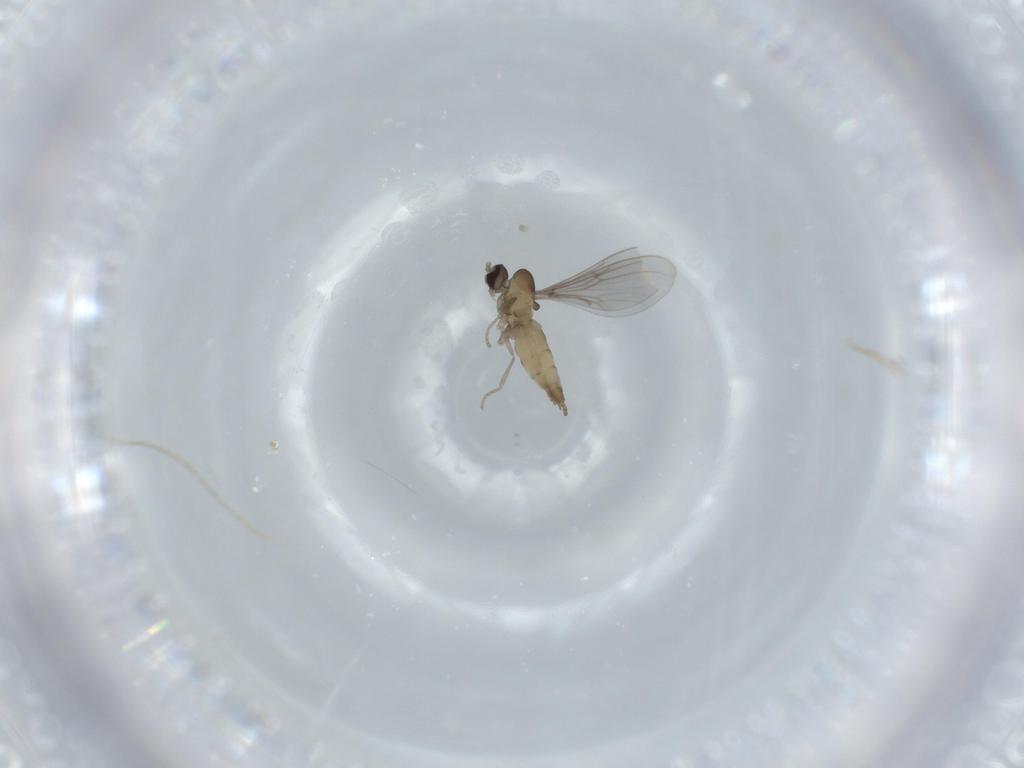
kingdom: Animalia
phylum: Arthropoda
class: Insecta
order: Diptera
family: Cecidomyiidae
